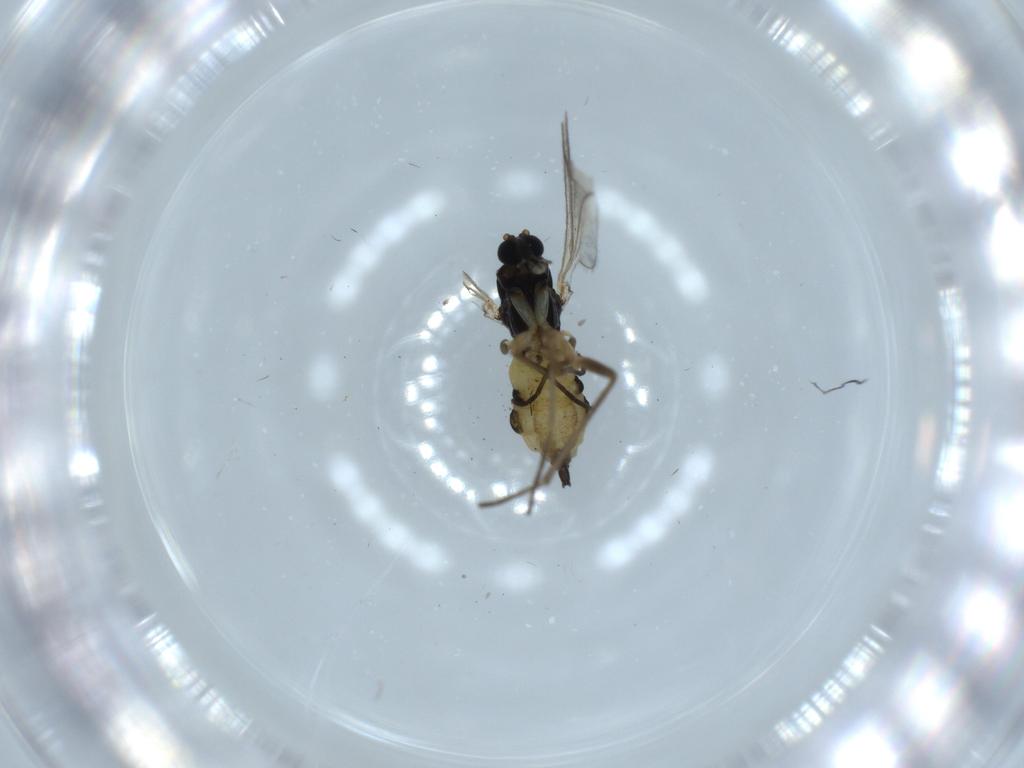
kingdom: Animalia
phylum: Arthropoda
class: Insecta
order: Diptera
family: Sciaridae
